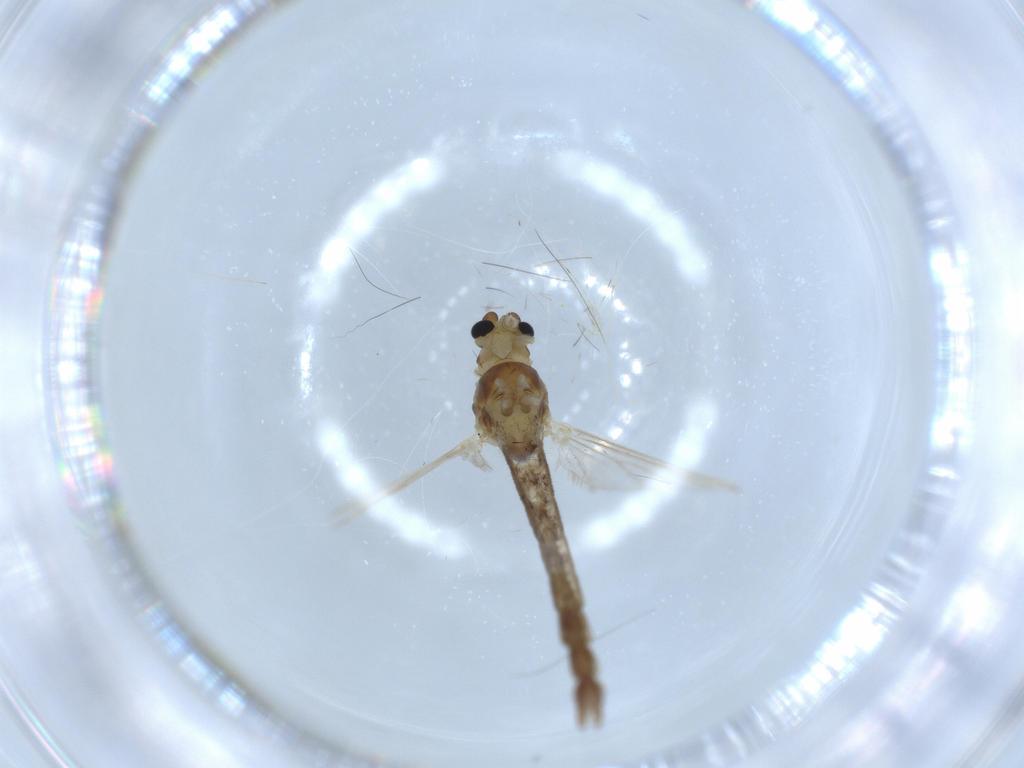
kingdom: Animalia
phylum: Arthropoda
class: Insecta
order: Diptera
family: Chironomidae
